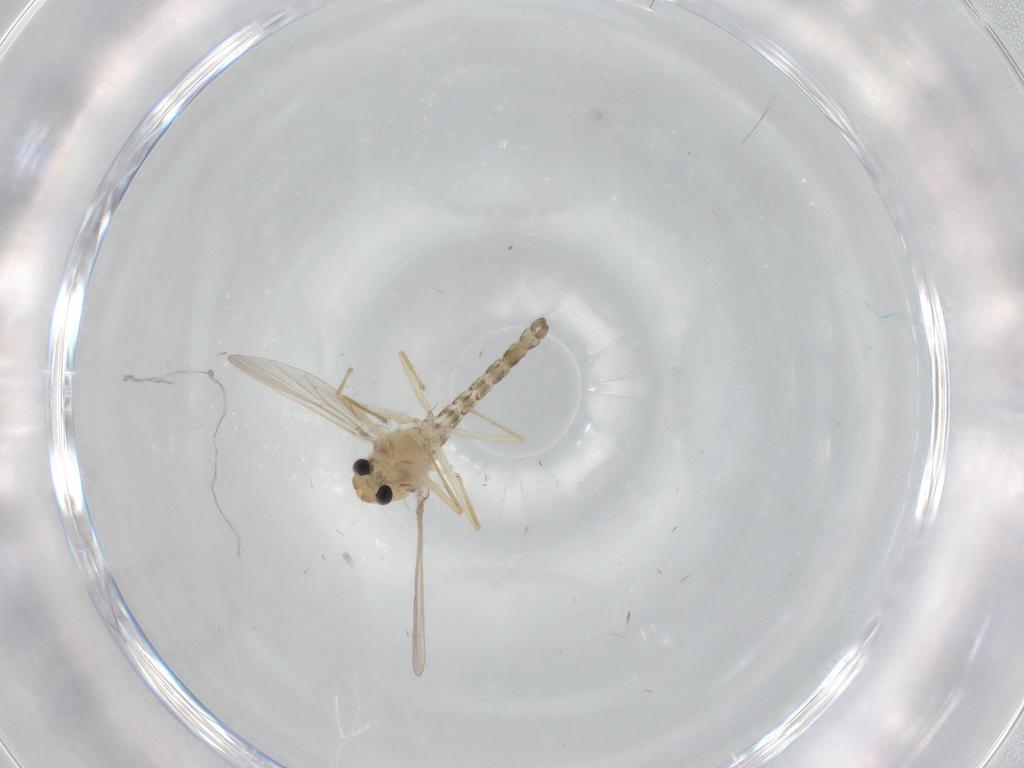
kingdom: Animalia
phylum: Arthropoda
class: Insecta
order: Diptera
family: Chironomidae
